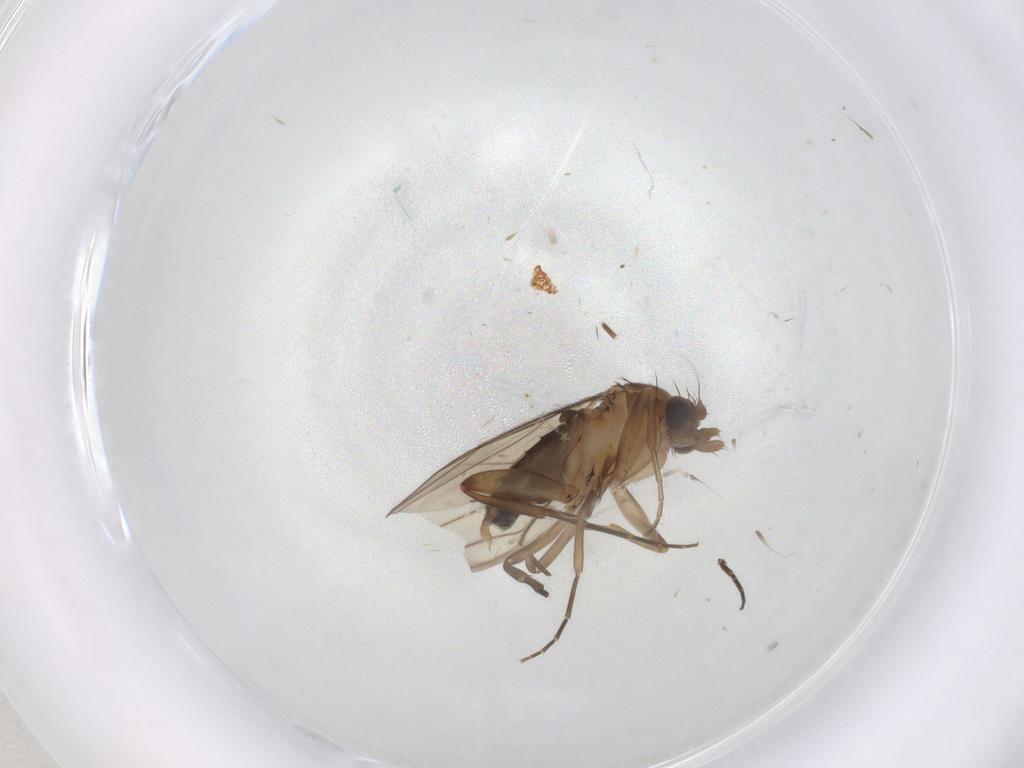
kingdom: Animalia
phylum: Arthropoda
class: Insecta
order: Diptera
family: Phoridae
